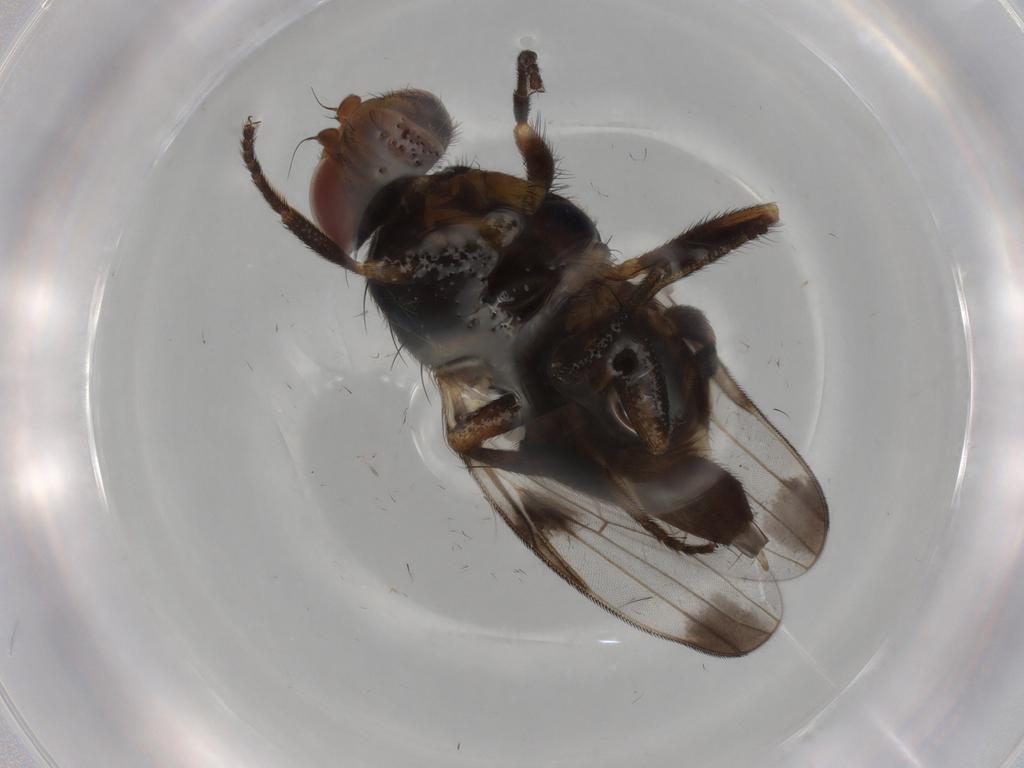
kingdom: Animalia
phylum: Arthropoda
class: Insecta
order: Diptera
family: Ulidiidae
